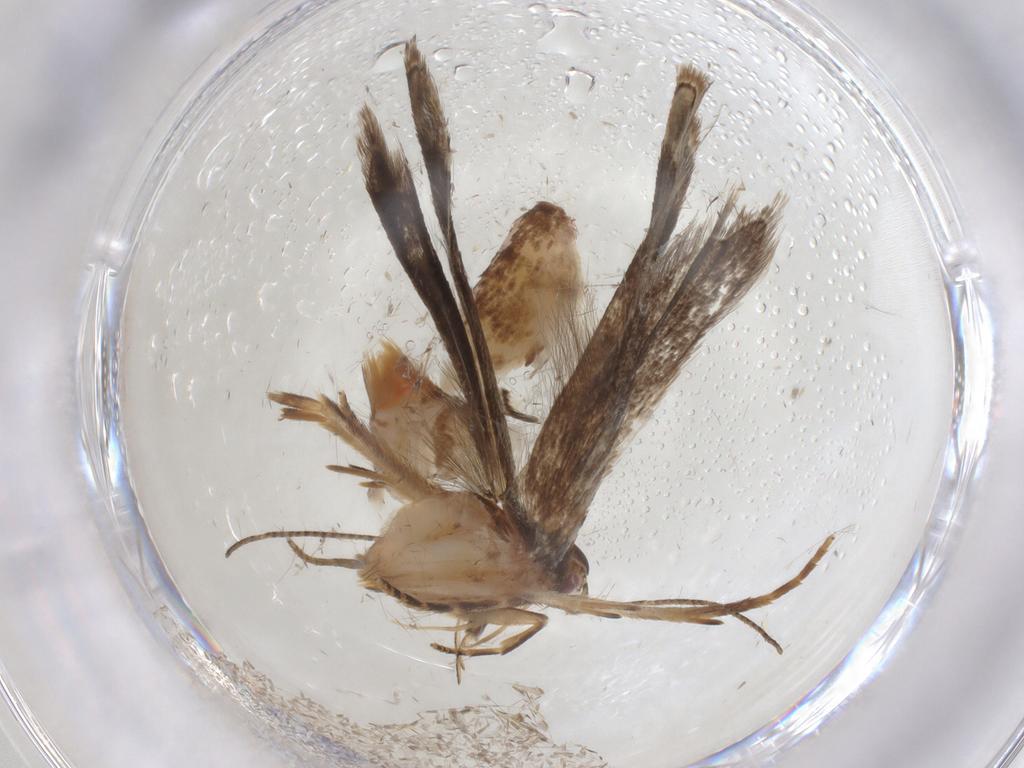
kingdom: Animalia
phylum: Arthropoda
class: Insecta
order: Lepidoptera
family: Gelechiidae
